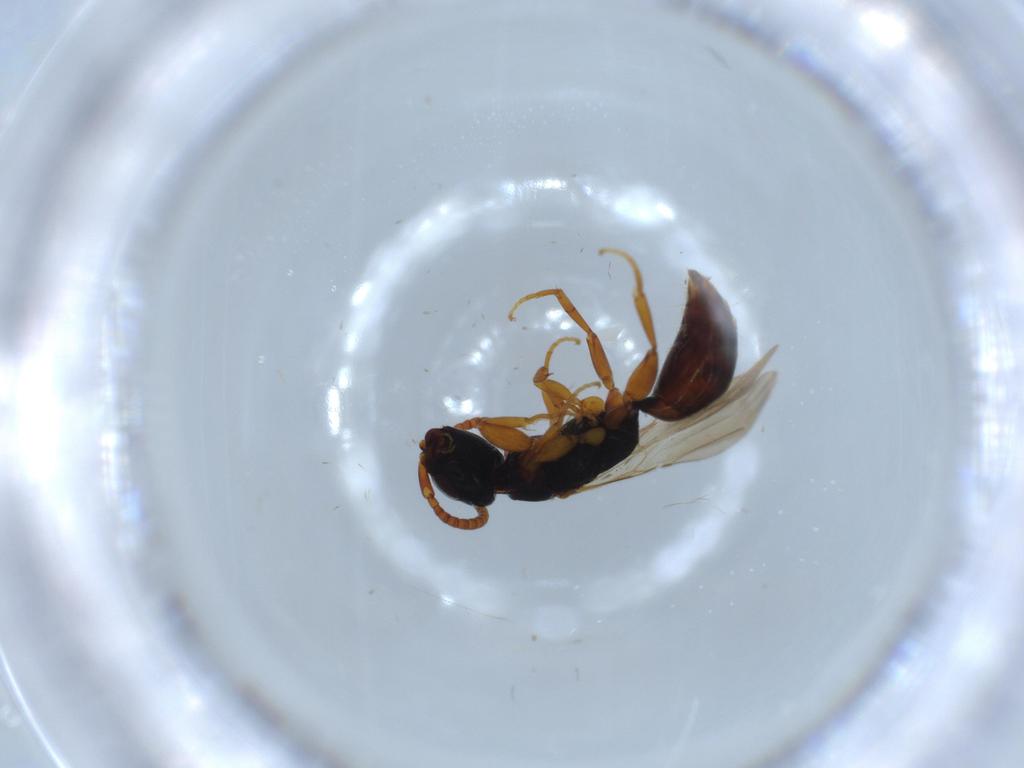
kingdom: Animalia
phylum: Arthropoda
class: Insecta
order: Hymenoptera
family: Bethylidae
